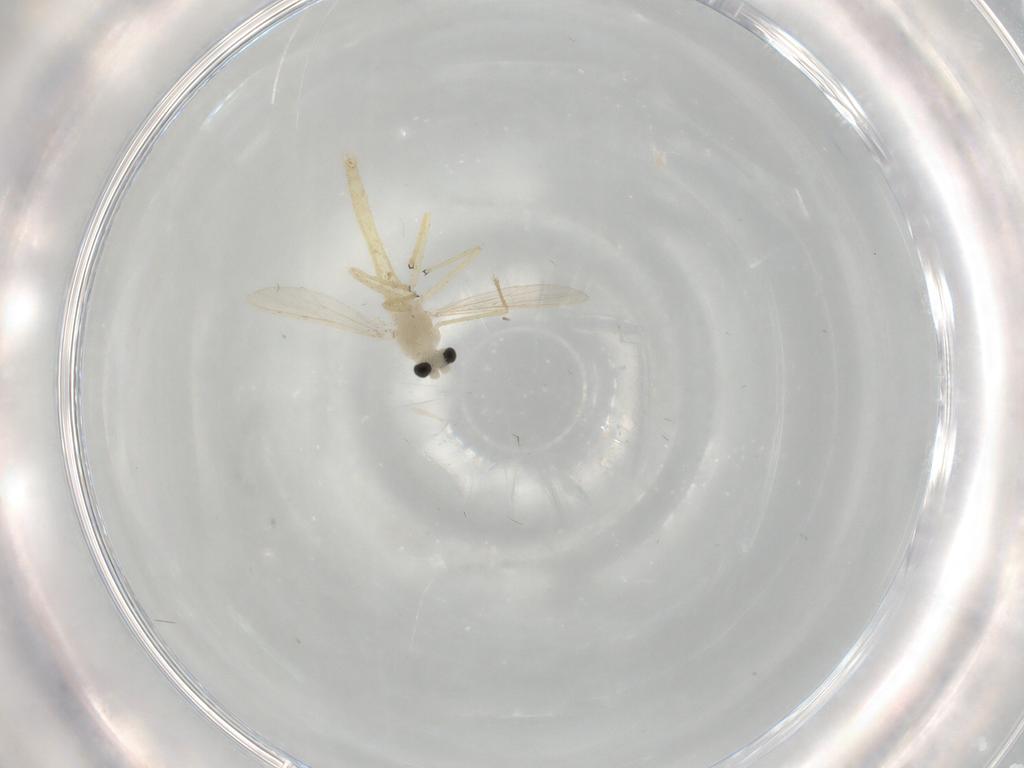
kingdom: Animalia
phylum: Arthropoda
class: Insecta
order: Diptera
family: Chironomidae
